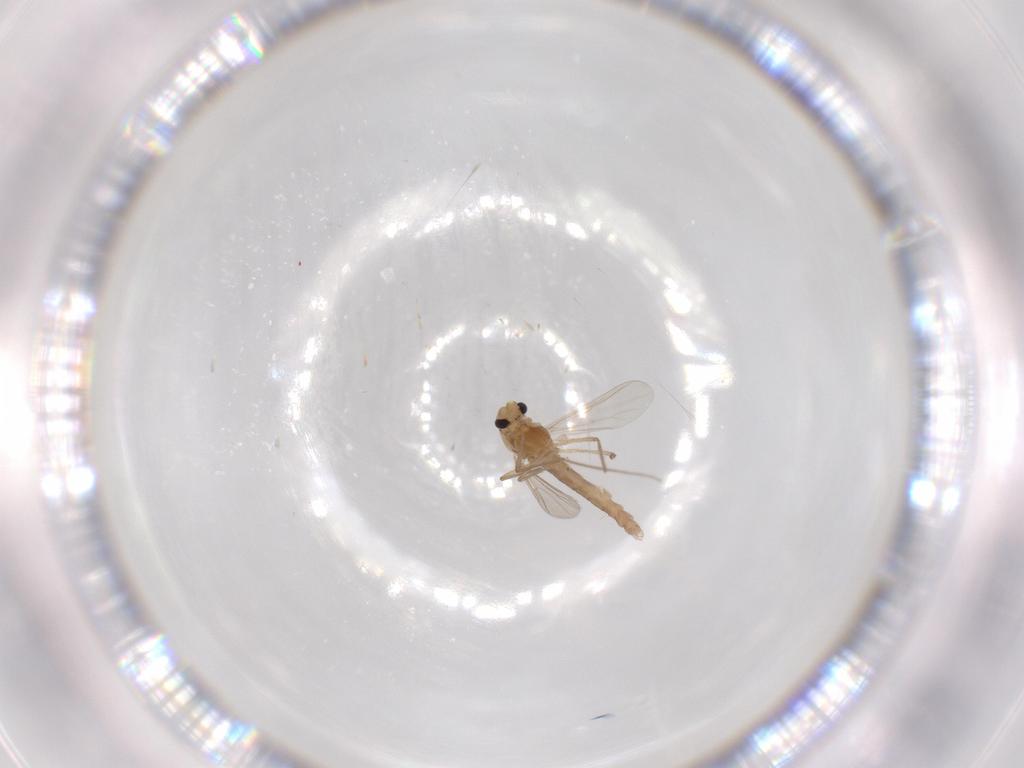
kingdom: Animalia
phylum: Arthropoda
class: Insecta
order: Diptera
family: Chironomidae
